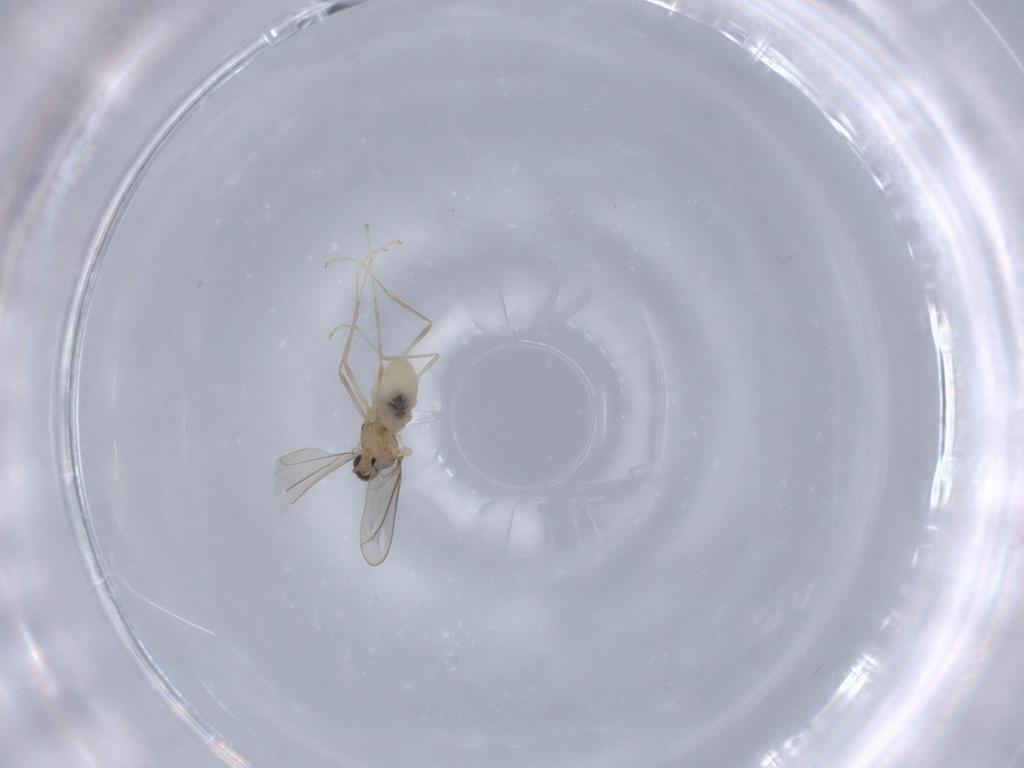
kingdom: Animalia
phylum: Arthropoda
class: Insecta
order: Diptera
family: Cecidomyiidae
